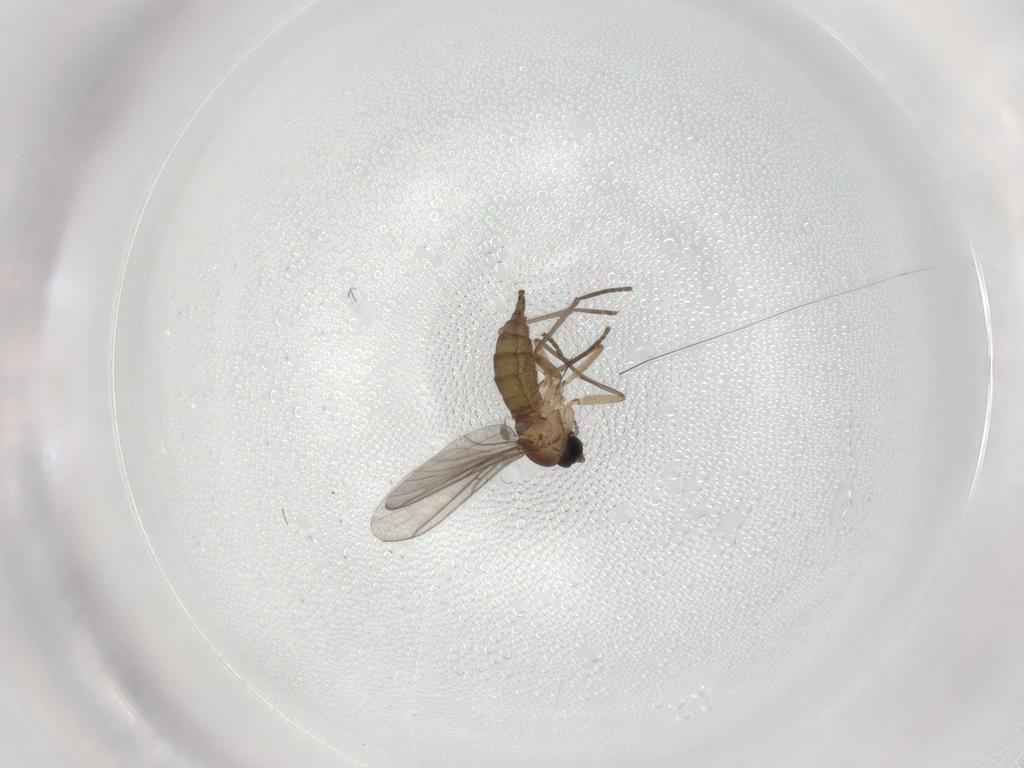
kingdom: Animalia
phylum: Arthropoda
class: Insecta
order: Diptera
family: Sciaridae
